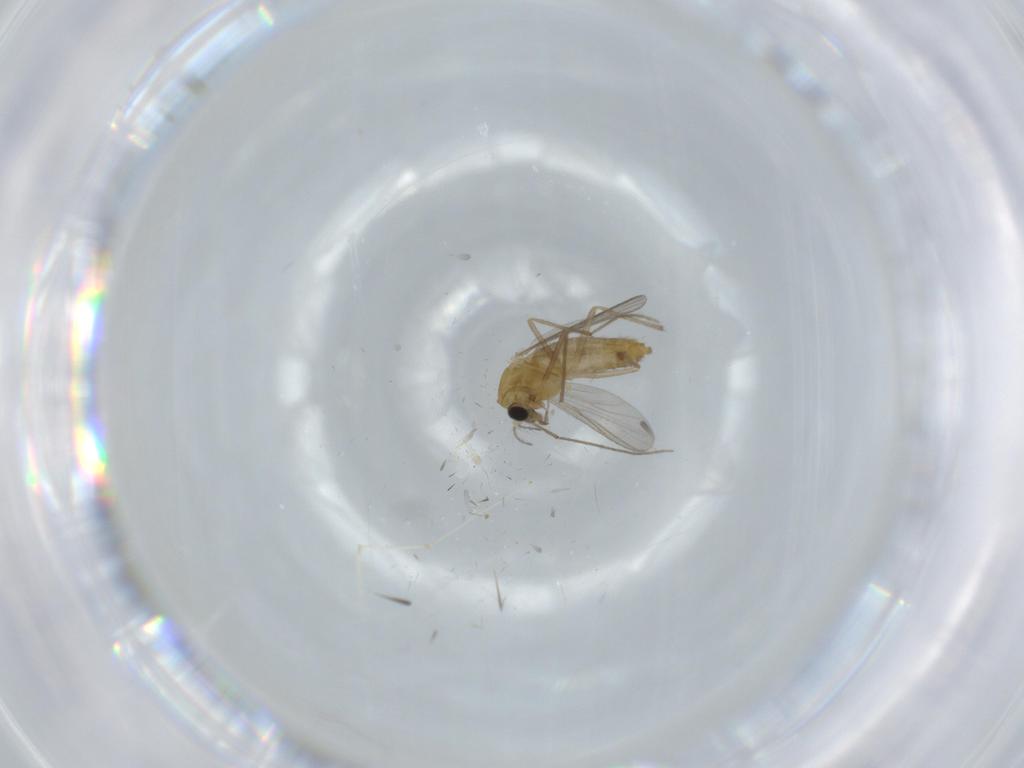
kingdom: Animalia
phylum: Arthropoda
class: Insecta
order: Diptera
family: Chironomidae
